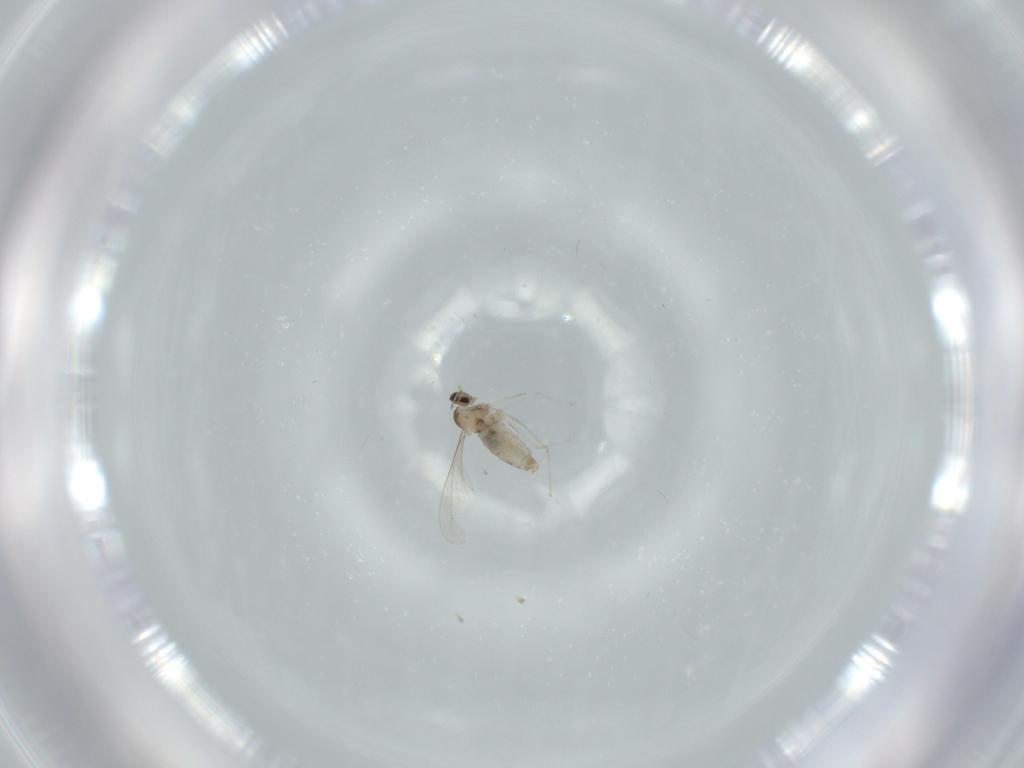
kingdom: Animalia
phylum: Arthropoda
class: Insecta
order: Diptera
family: Cecidomyiidae
